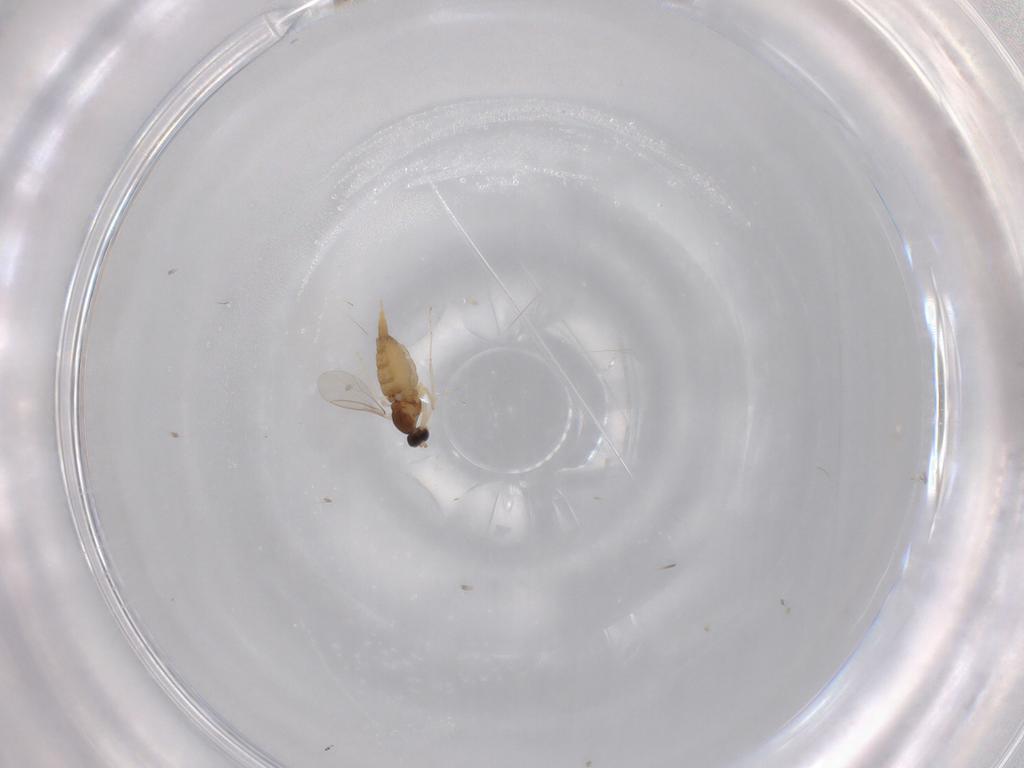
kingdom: Animalia
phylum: Arthropoda
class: Insecta
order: Diptera
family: Cecidomyiidae
